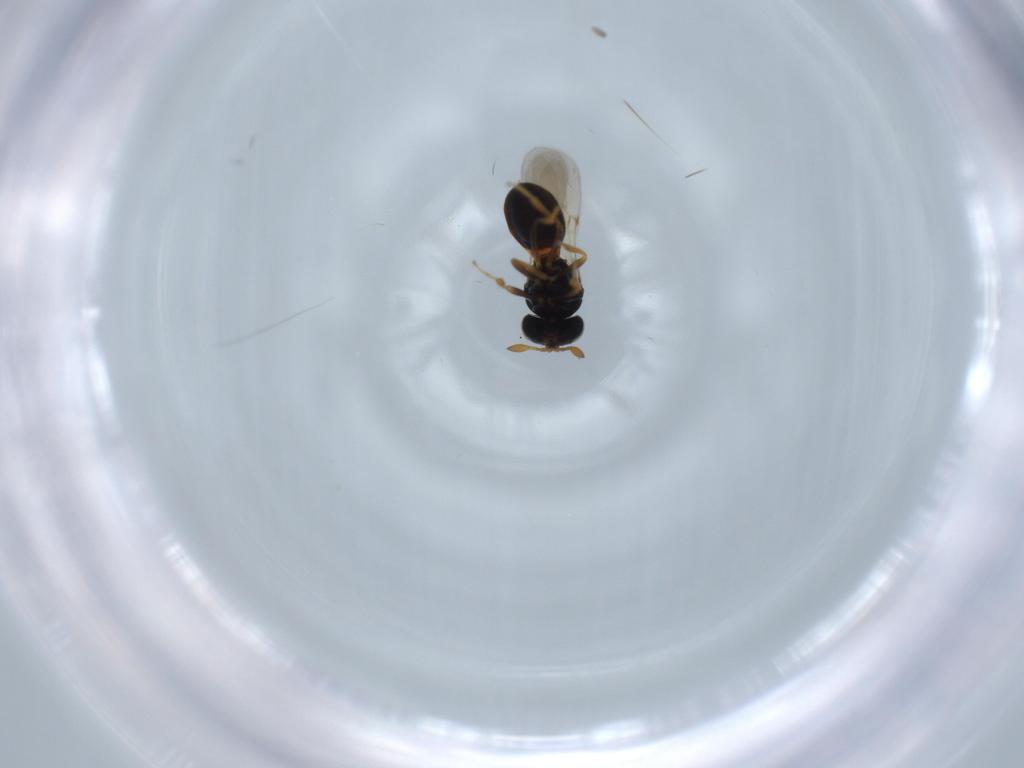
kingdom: Animalia
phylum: Arthropoda
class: Insecta
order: Hymenoptera
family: Scelionidae
